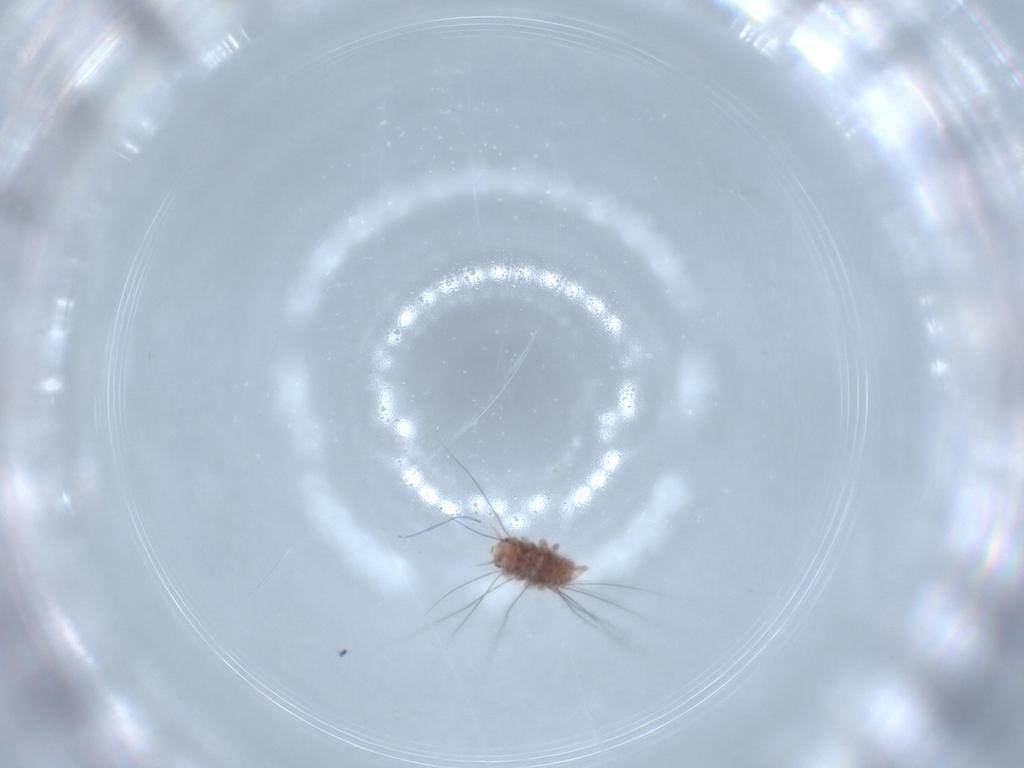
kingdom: Animalia
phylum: Arthropoda
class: Insecta
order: Neuroptera
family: Chrysopidae
